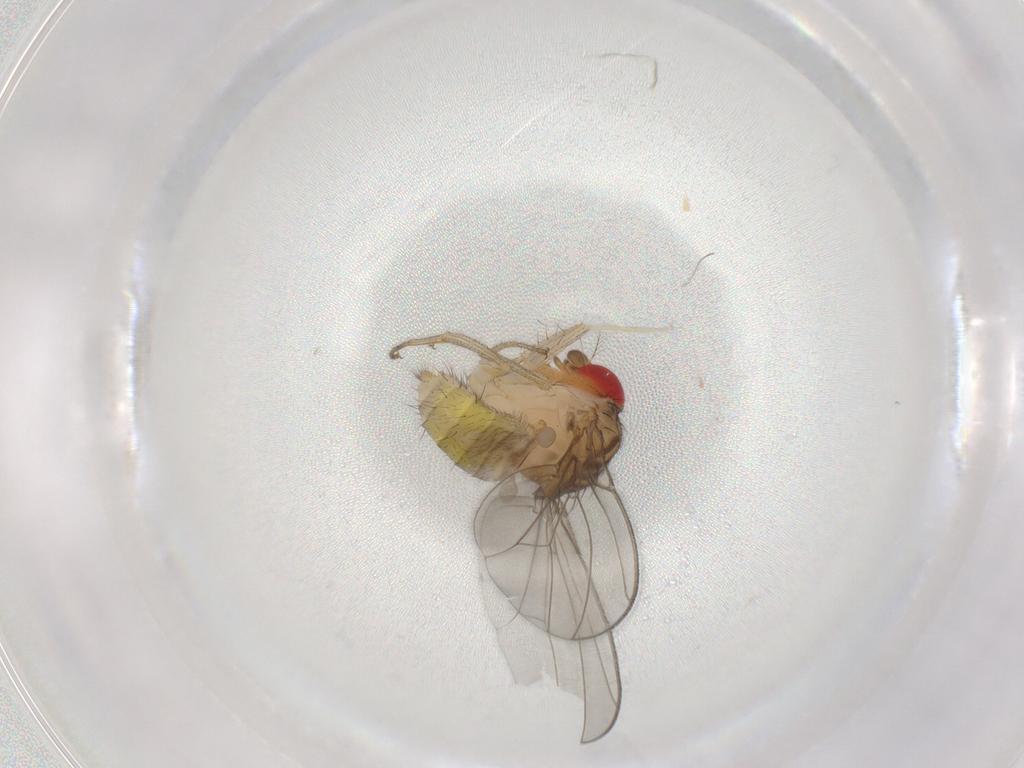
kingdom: Animalia
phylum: Arthropoda
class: Insecta
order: Diptera
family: Drosophilidae
